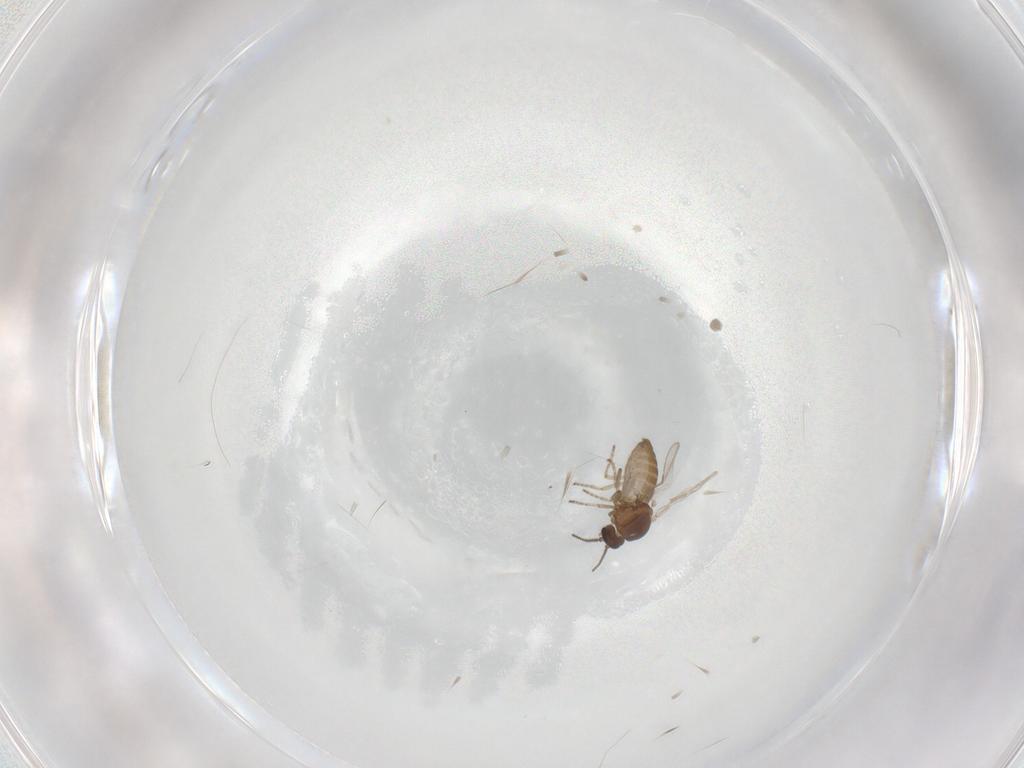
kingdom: Animalia
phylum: Arthropoda
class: Insecta
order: Diptera
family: Ceratopogonidae
